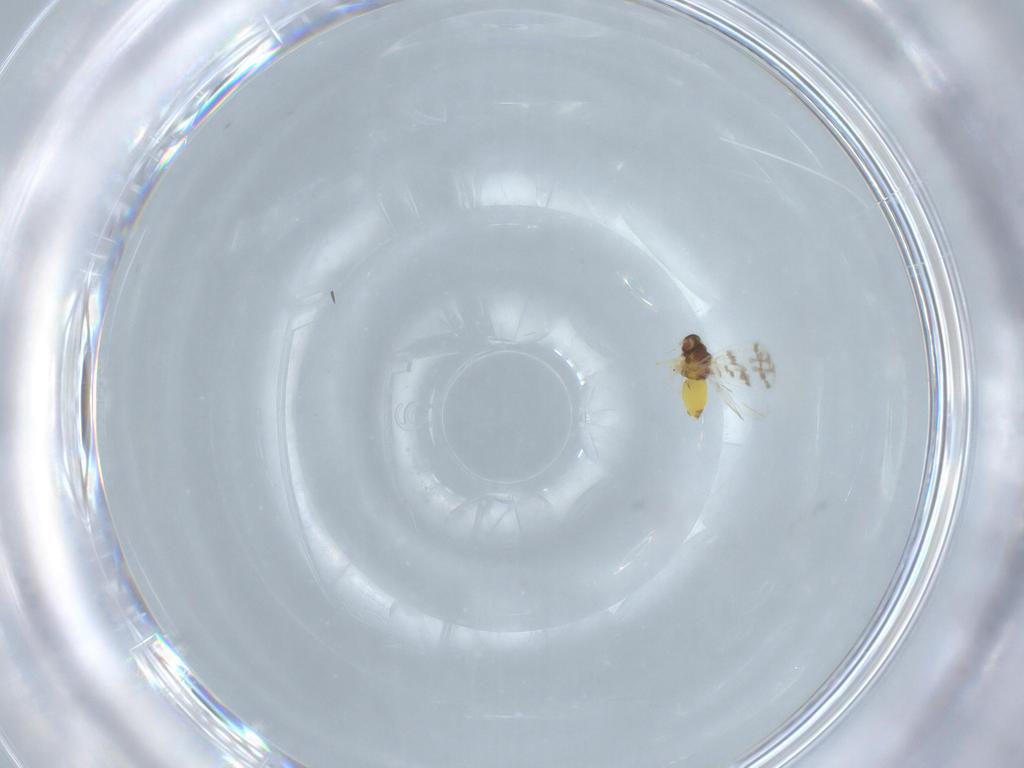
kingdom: Animalia
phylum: Arthropoda
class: Insecta
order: Hemiptera
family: Aleyrodidae
